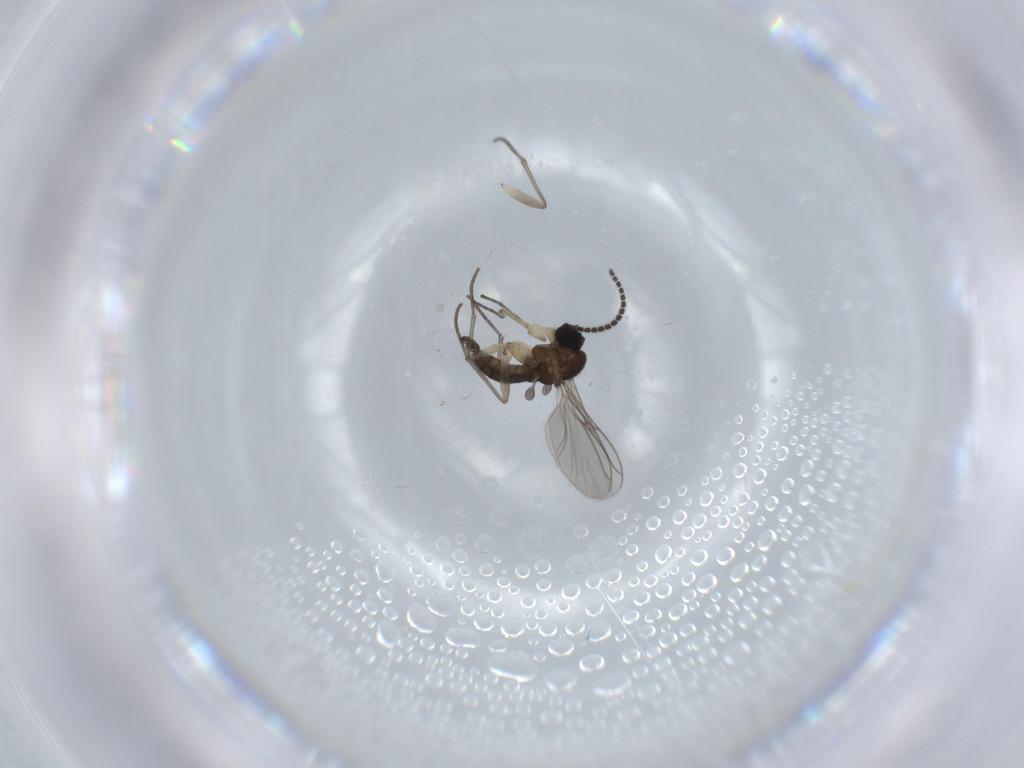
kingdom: Animalia
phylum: Arthropoda
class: Insecta
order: Diptera
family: Sciaridae
